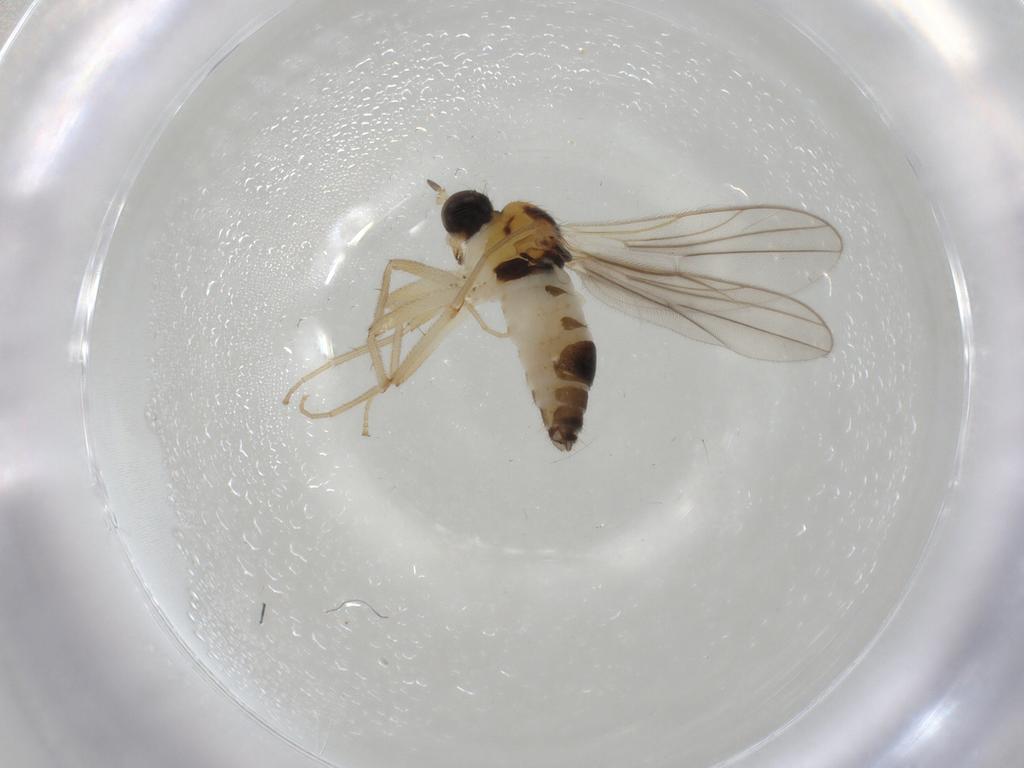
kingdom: Animalia
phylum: Arthropoda
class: Insecta
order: Diptera
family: Hybotidae
